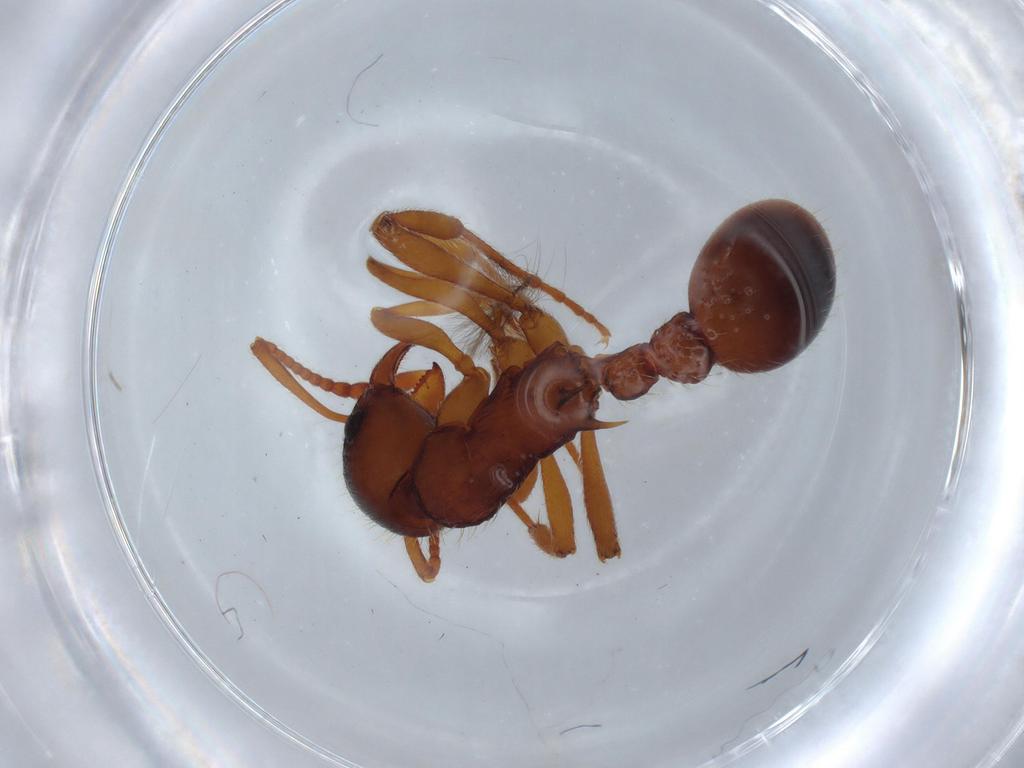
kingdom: Animalia
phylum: Arthropoda
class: Insecta
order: Hymenoptera
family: Formicidae
